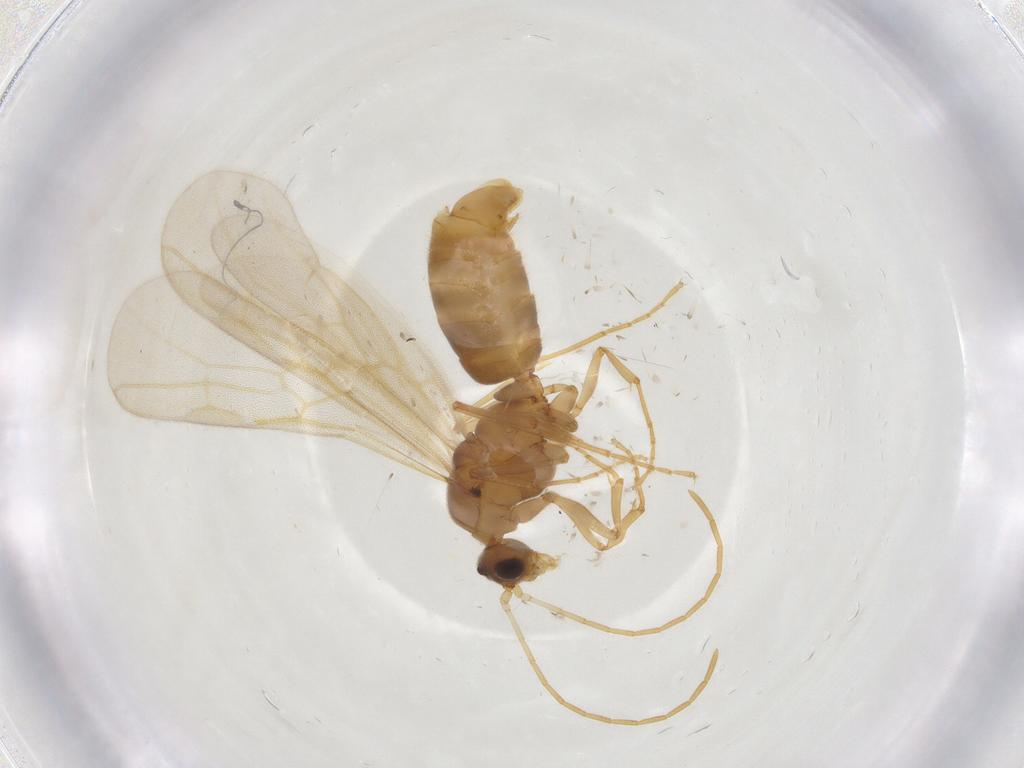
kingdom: Animalia
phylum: Arthropoda
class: Insecta
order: Hymenoptera
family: Formicidae
